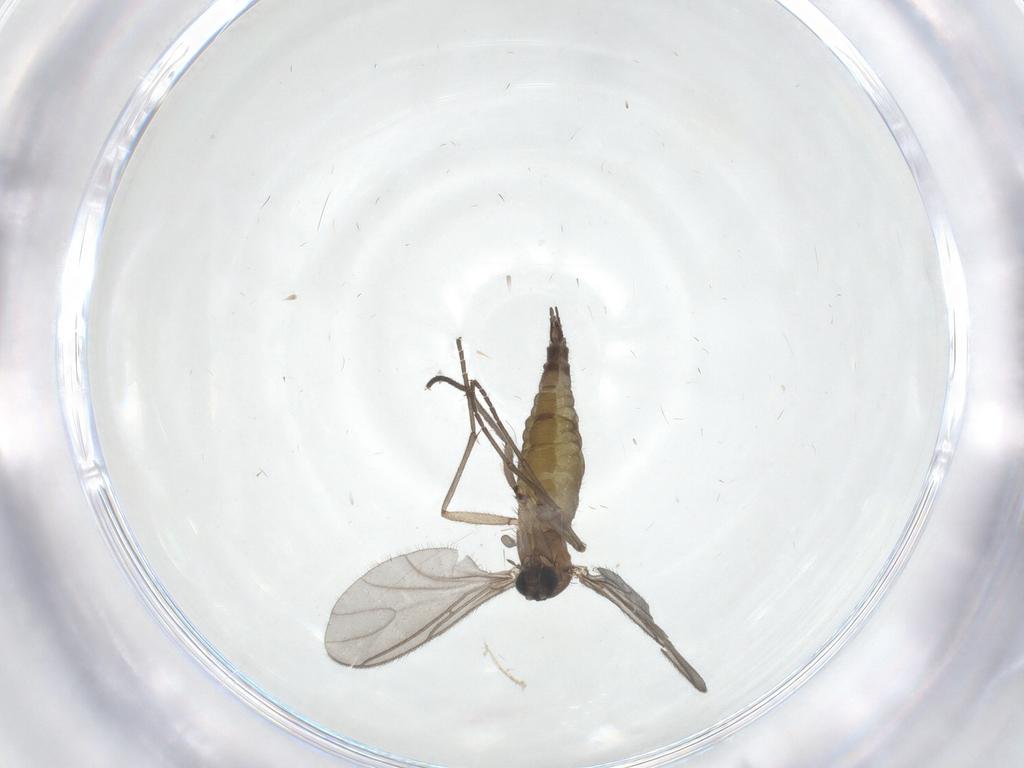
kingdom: Animalia
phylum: Arthropoda
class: Insecta
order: Diptera
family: Sciaridae
